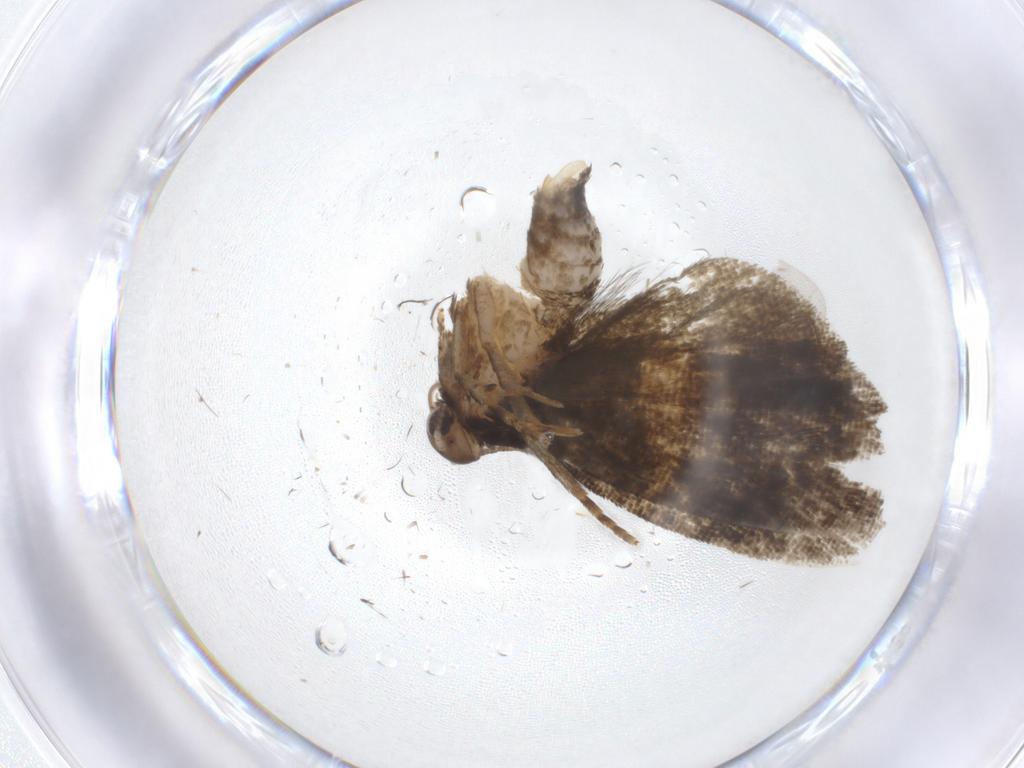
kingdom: Animalia
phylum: Arthropoda
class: Insecta
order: Lepidoptera
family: Tortricidae
